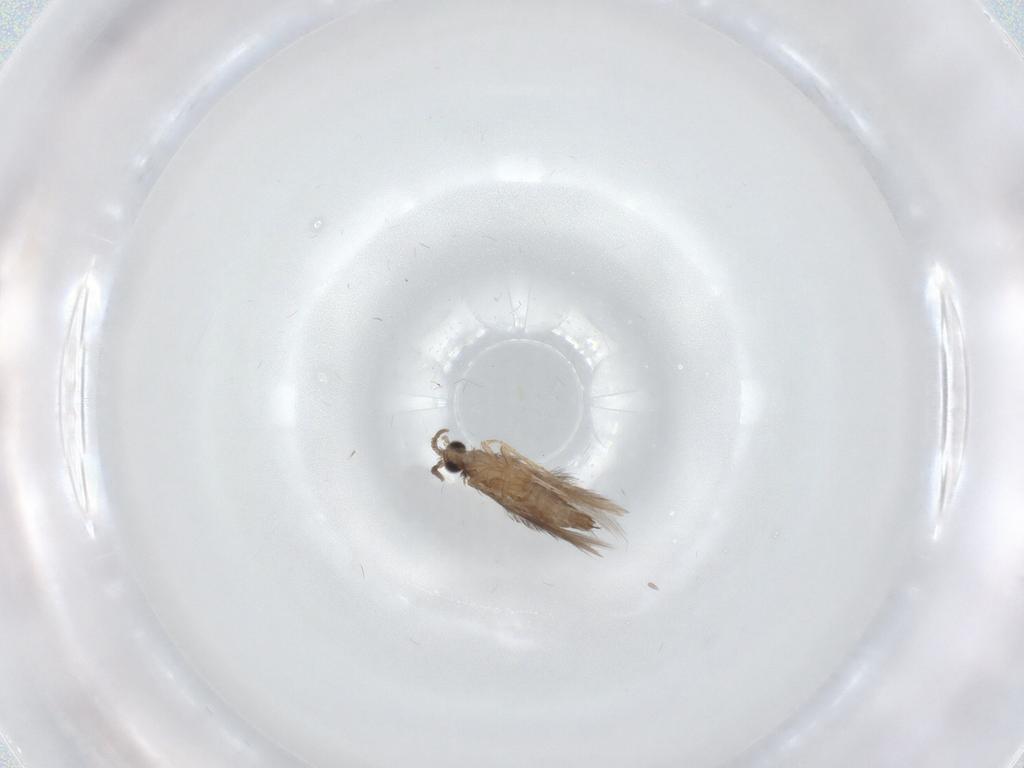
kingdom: Animalia
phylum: Arthropoda
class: Insecta
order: Trichoptera
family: Hydroptilidae
